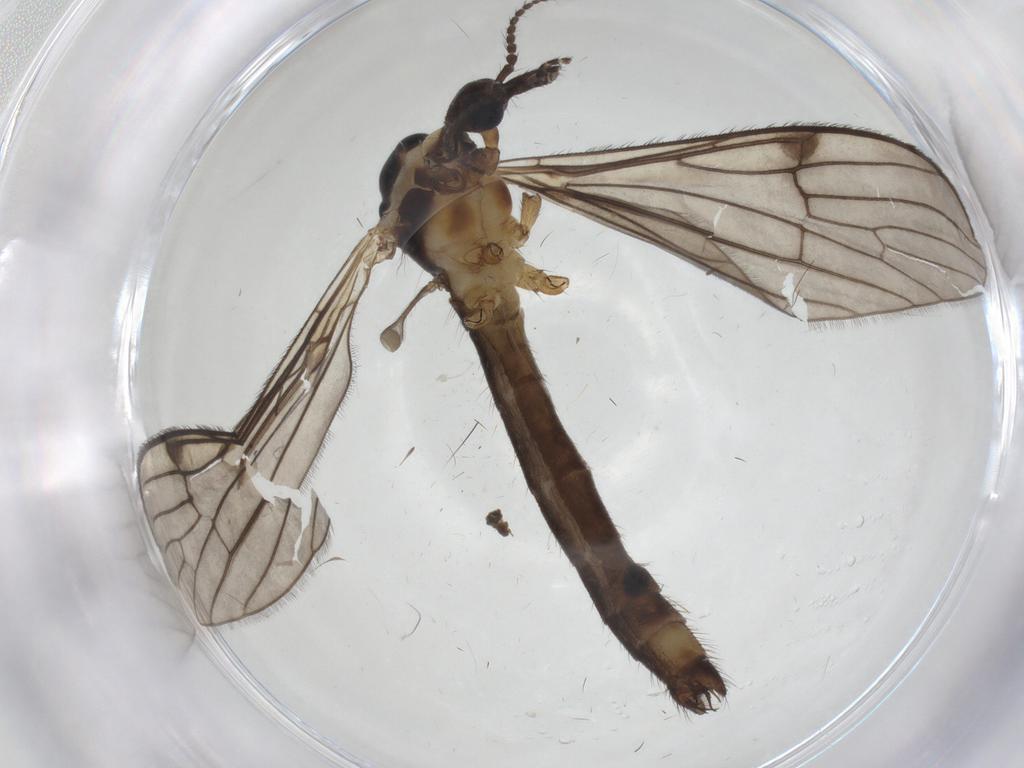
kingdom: Animalia
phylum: Arthropoda
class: Insecta
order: Diptera
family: Limoniidae
